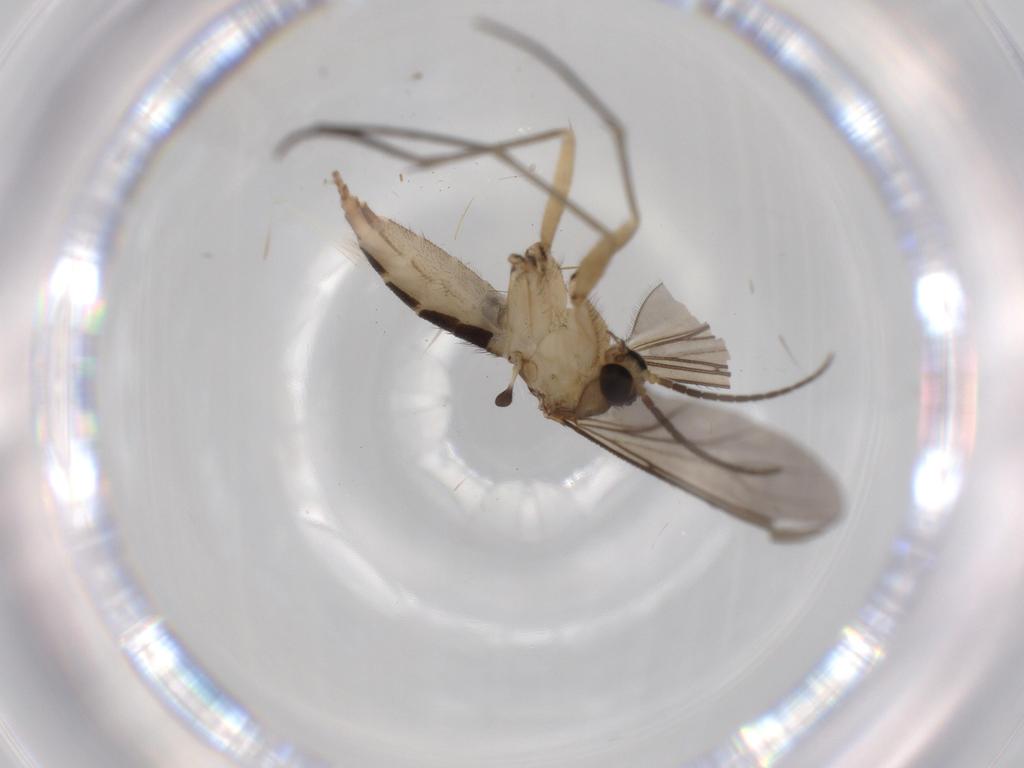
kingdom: Animalia
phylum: Arthropoda
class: Insecta
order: Diptera
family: Sciaridae
